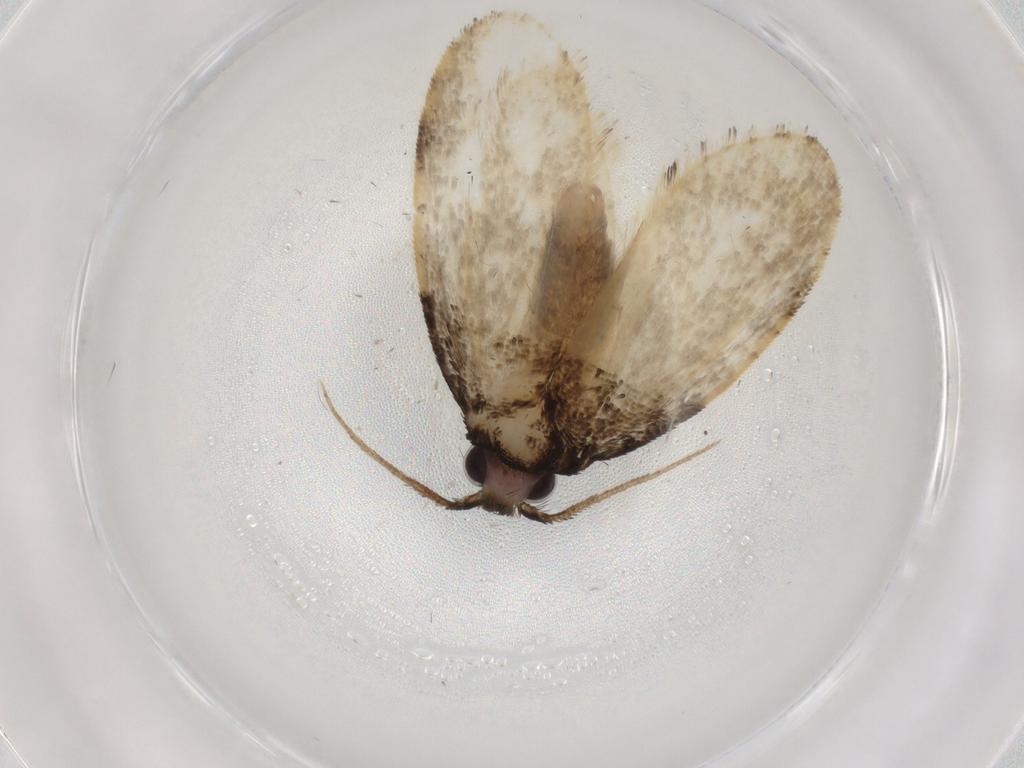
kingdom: Animalia
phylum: Arthropoda
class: Insecta
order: Lepidoptera
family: Psychidae
